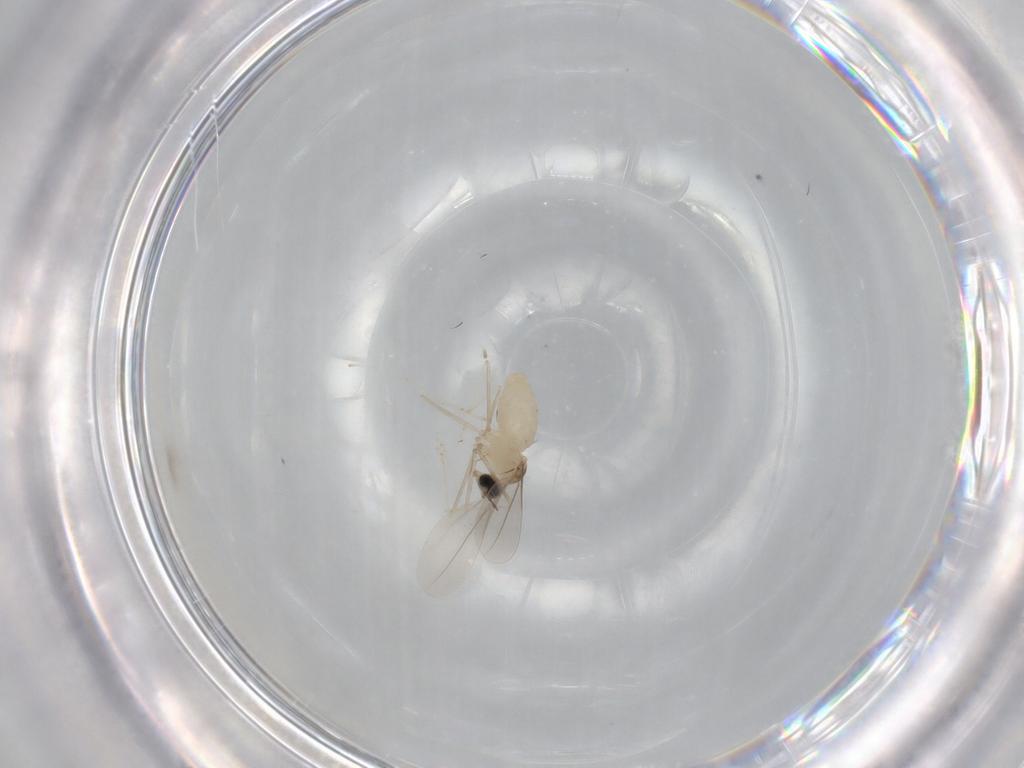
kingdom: Animalia
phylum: Arthropoda
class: Insecta
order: Diptera
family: Cecidomyiidae
